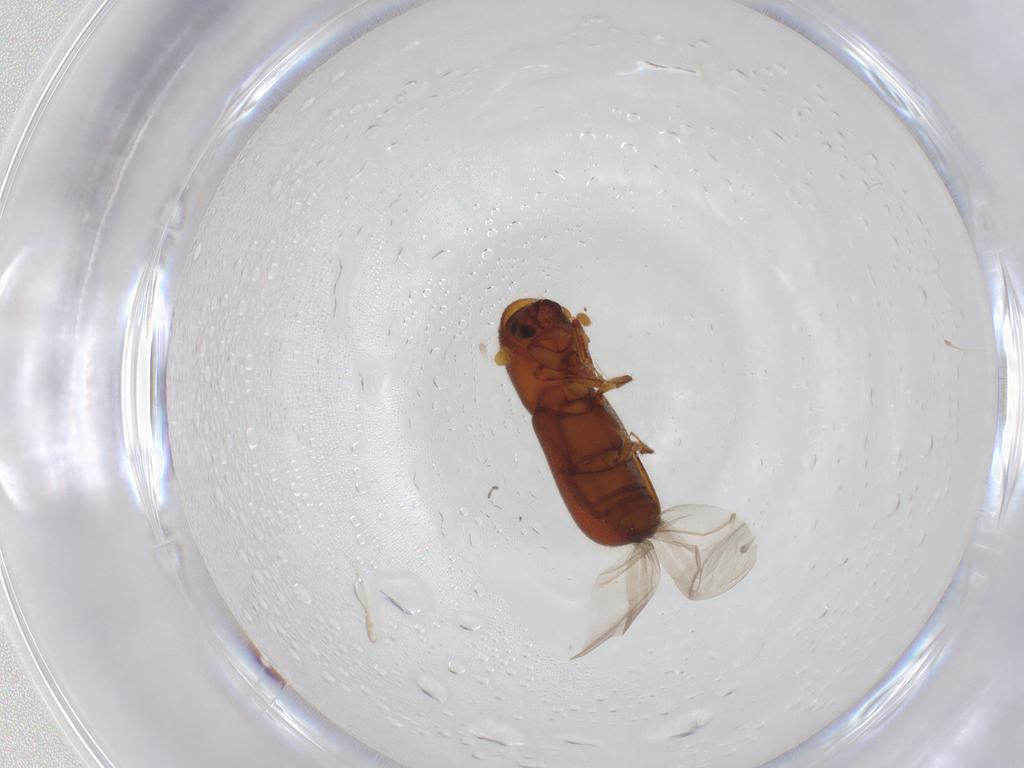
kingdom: Animalia
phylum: Arthropoda
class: Insecta
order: Coleoptera
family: Curculionidae
